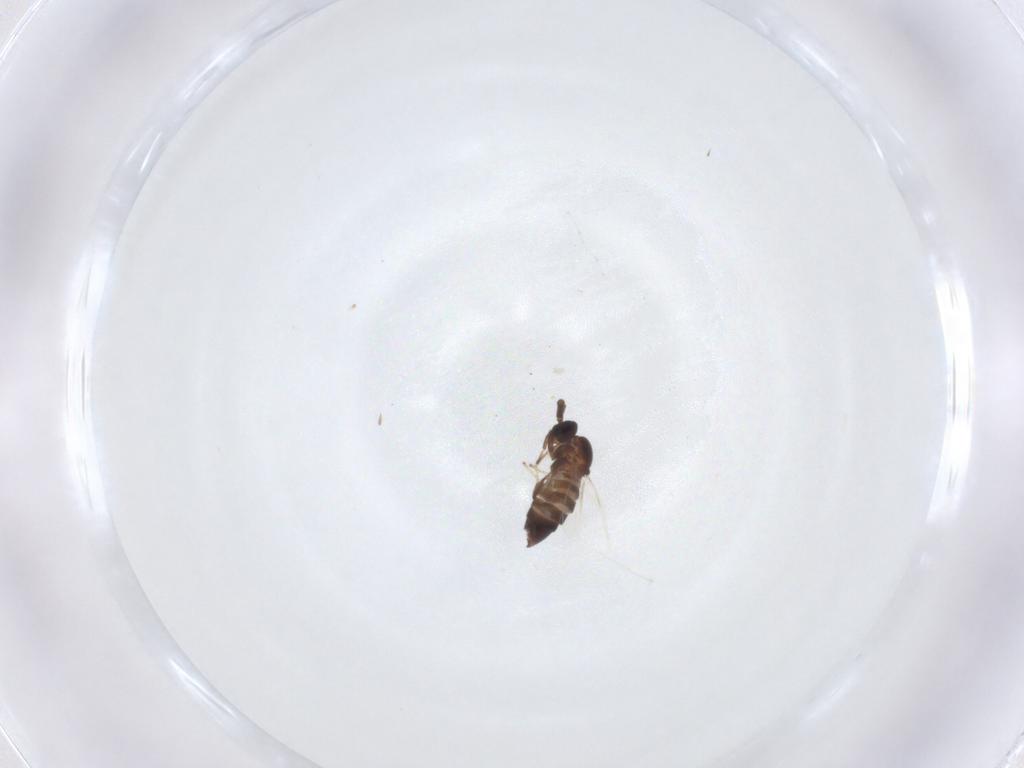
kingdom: Animalia
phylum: Arthropoda
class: Insecta
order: Diptera
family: Scatopsidae
